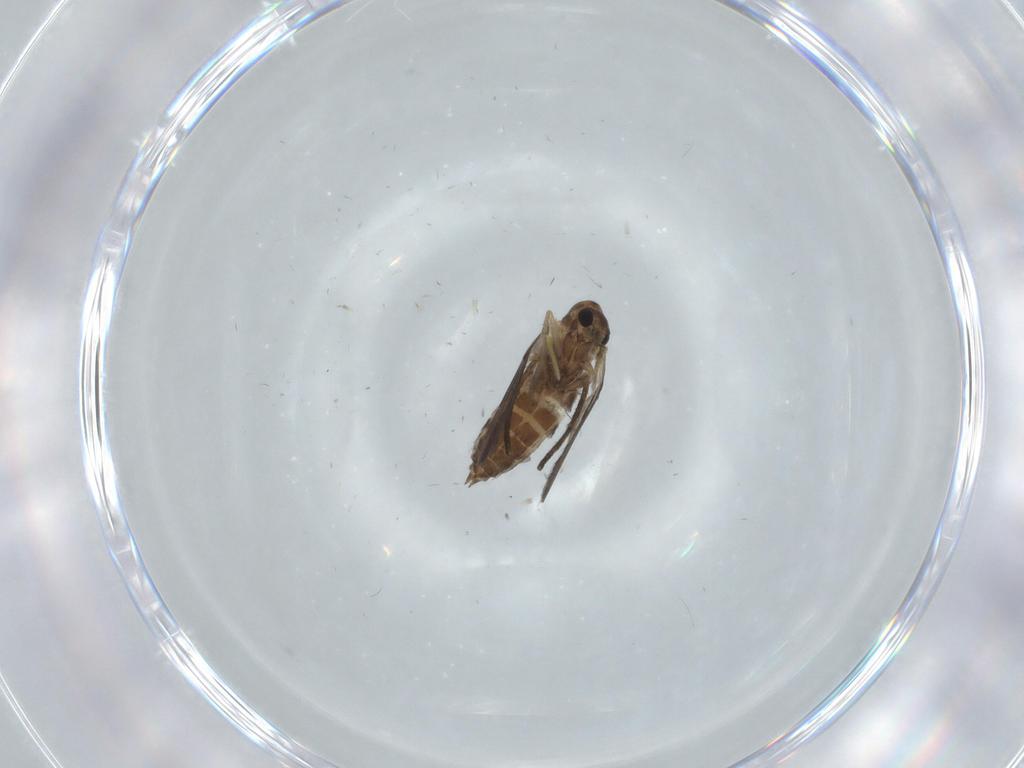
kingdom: Animalia
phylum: Arthropoda
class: Insecta
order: Diptera
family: Ceratopogonidae
